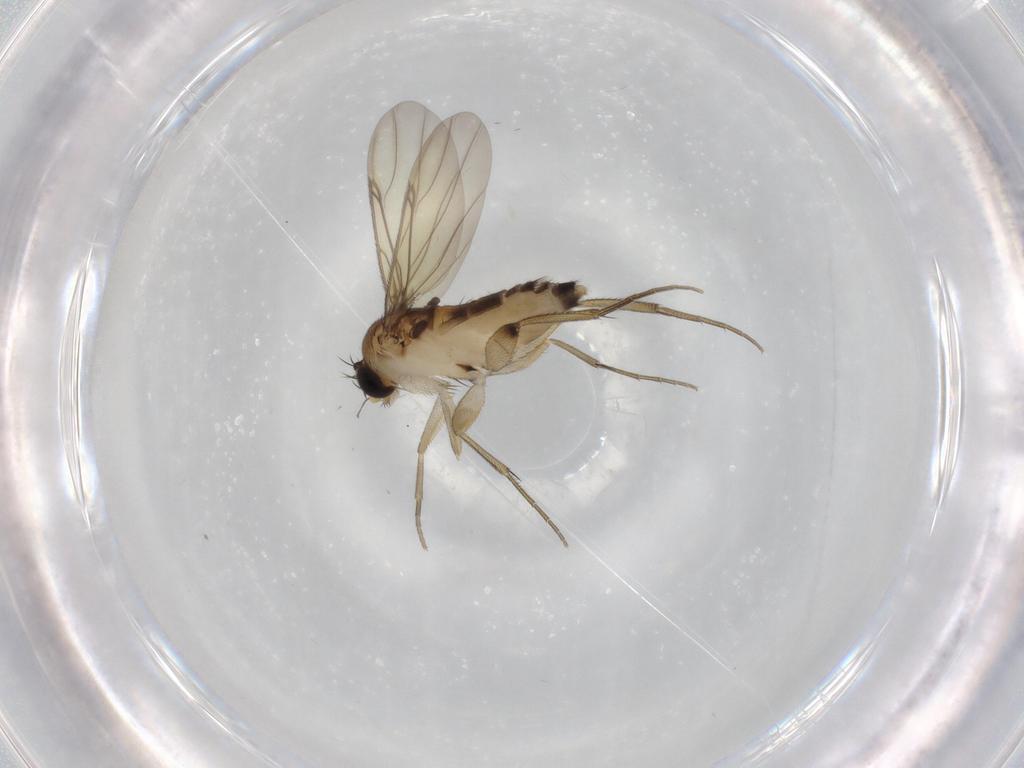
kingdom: Animalia
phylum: Arthropoda
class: Insecta
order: Diptera
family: Phoridae
